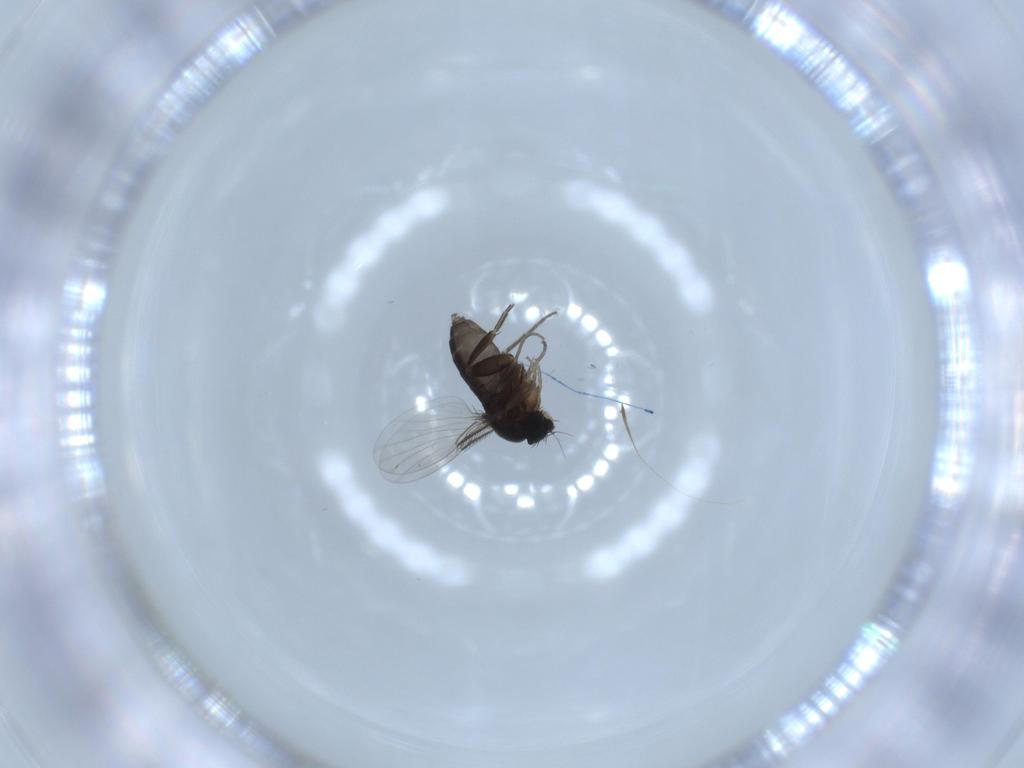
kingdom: Animalia
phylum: Arthropoda
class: Insecta
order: Diptera
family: Phoridae
